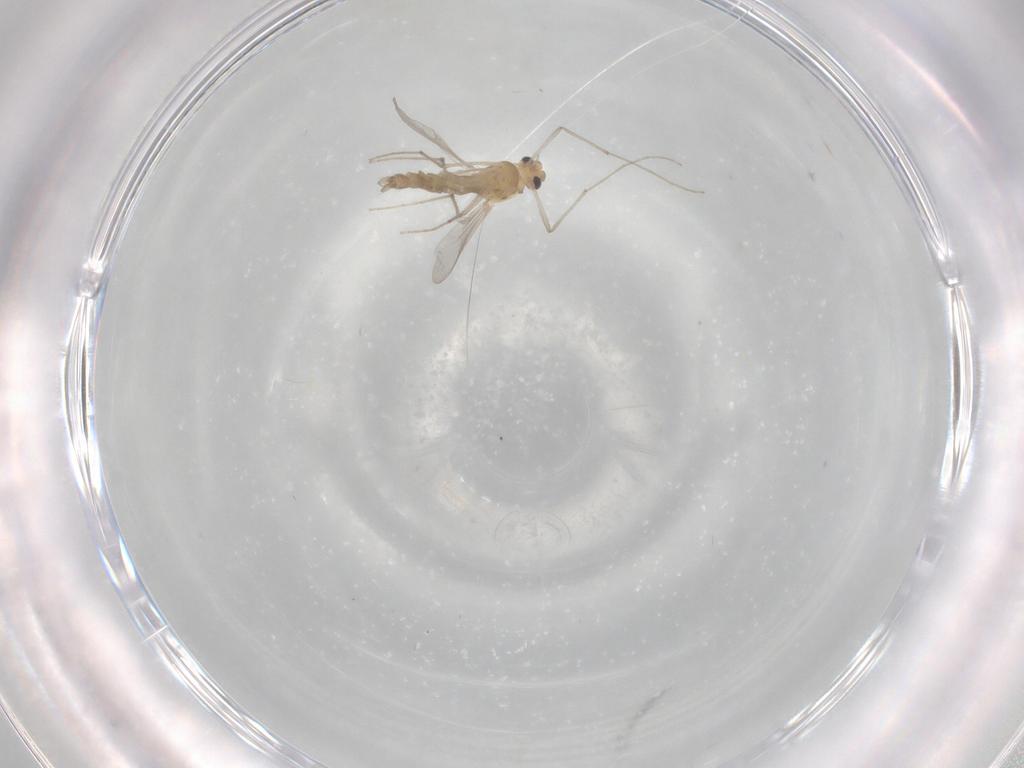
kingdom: Animalia
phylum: Arthropoda
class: Insecta
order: Diptera
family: Chironomidae
